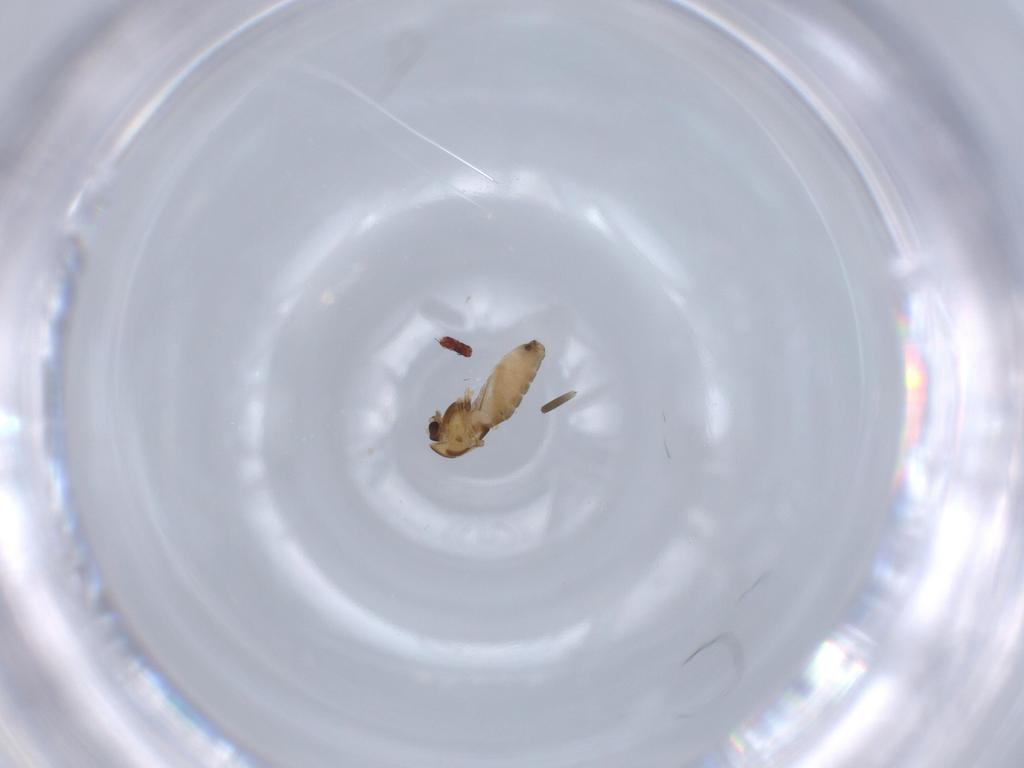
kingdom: Animalia
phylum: Arthropoda
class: Insecta
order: Diptera
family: Chironomidae
